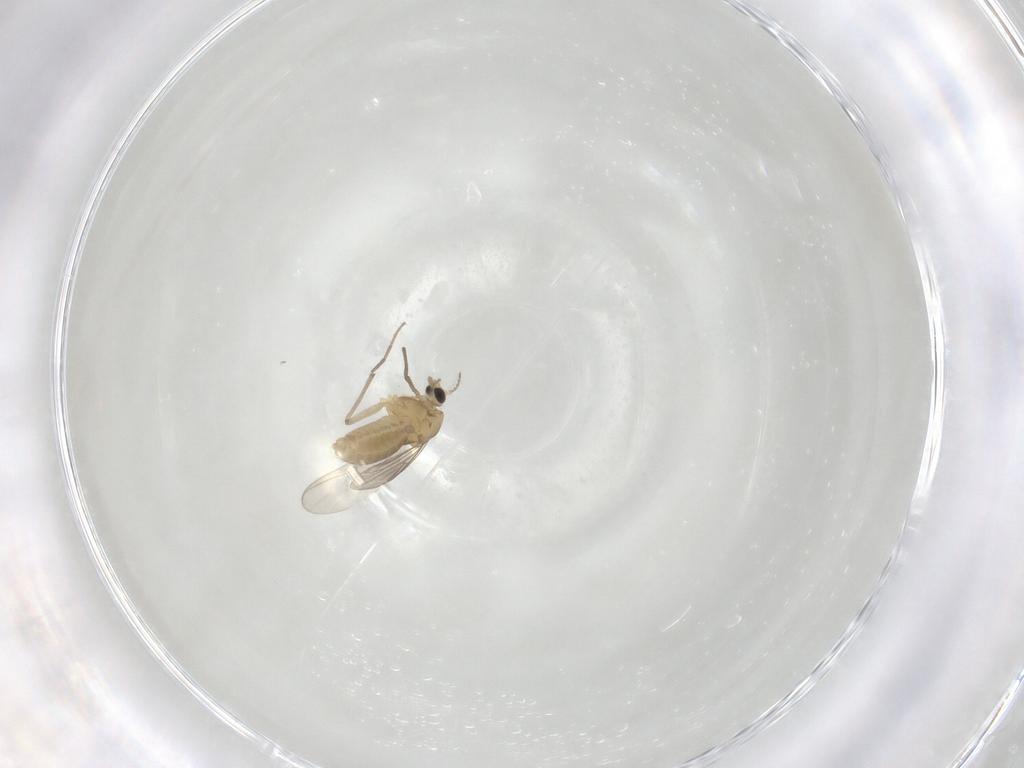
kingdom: Animalia
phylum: Arthropoda
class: Insecta
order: Diptera
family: Chironomidae
